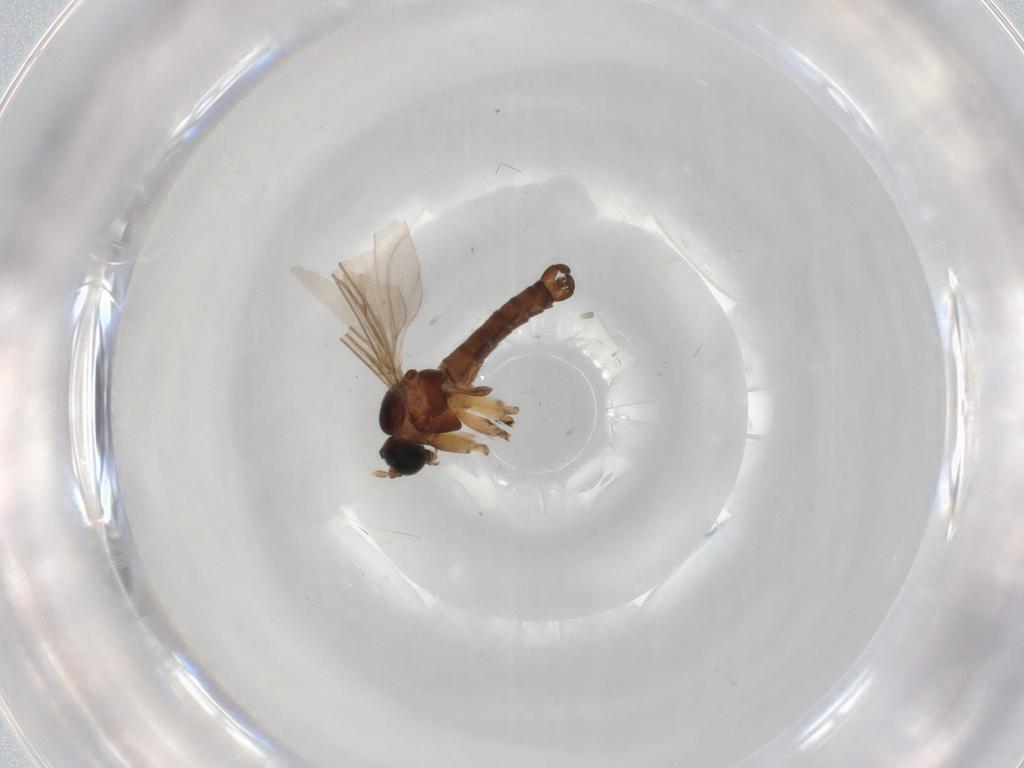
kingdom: Animalia
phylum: Arthropoda
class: Insecta
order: Diptera
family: Sciaridae
